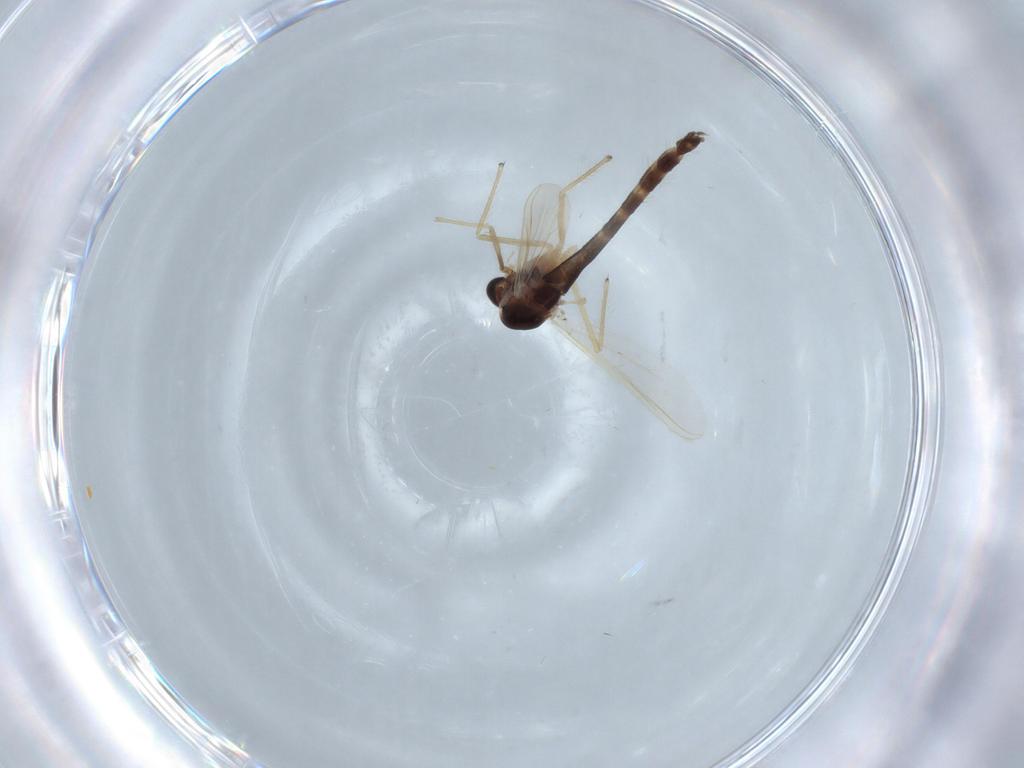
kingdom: Animalia
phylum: Arthropoda
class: Insecta
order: Diptera
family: Chironomidae
